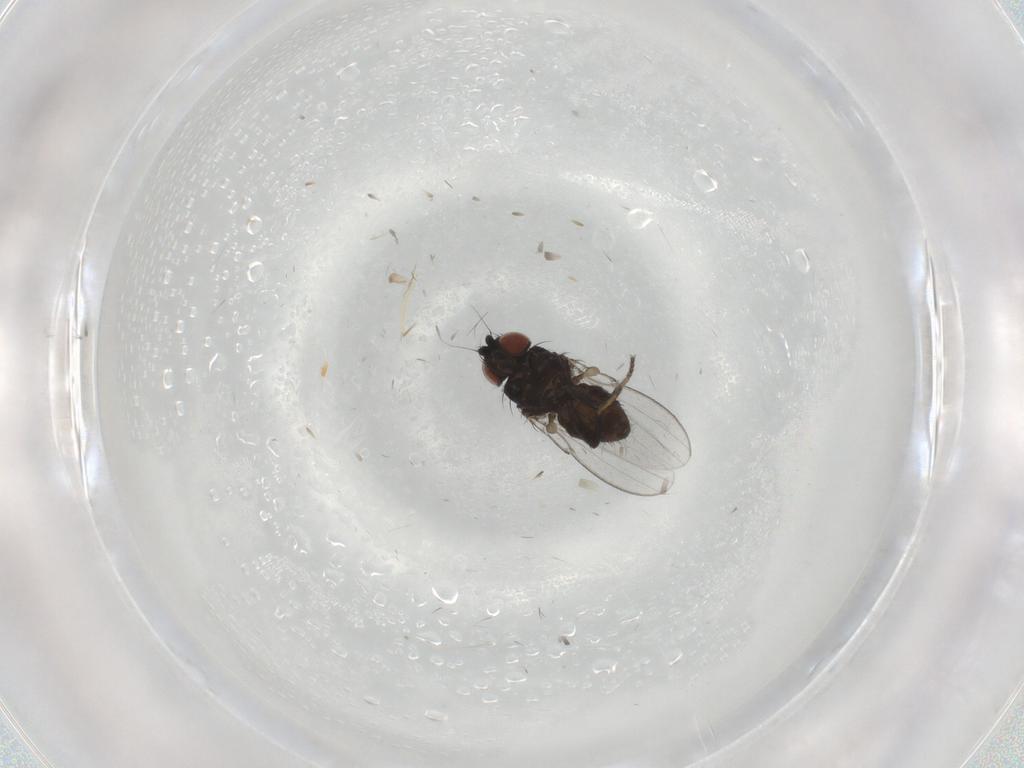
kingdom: Animalia
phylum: Arthropoda
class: Insecta
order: Diptera
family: Milichiidae
